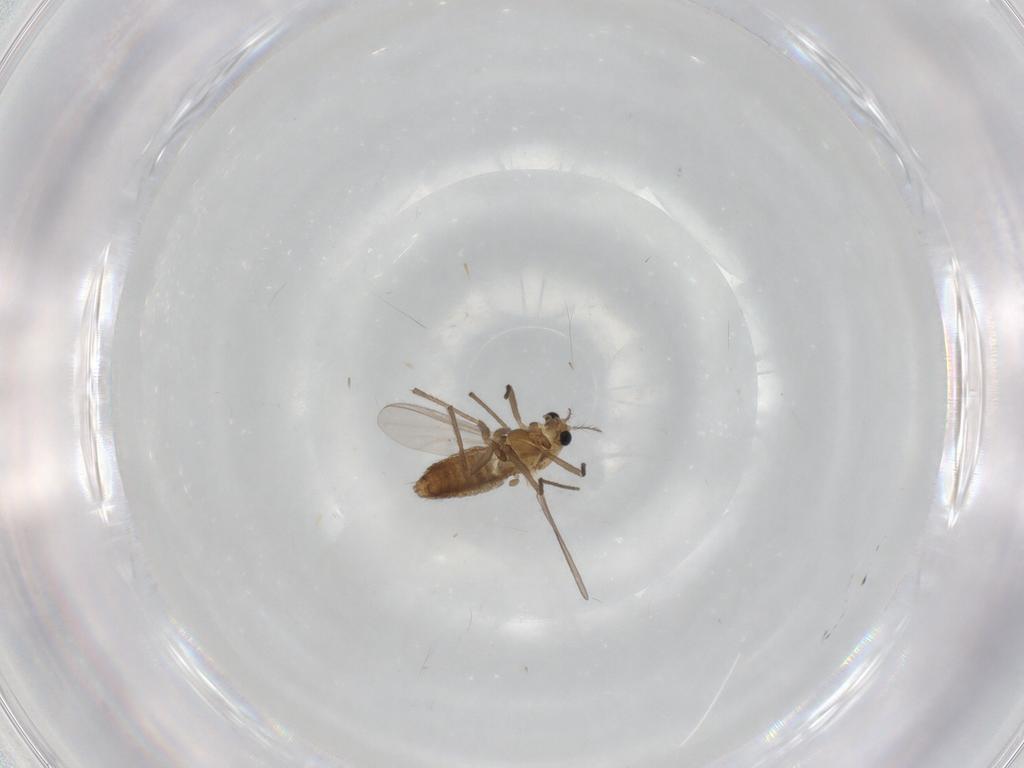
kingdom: Animalia
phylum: Arthropoda
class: Insecta
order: Diptera
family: Chironomidae
